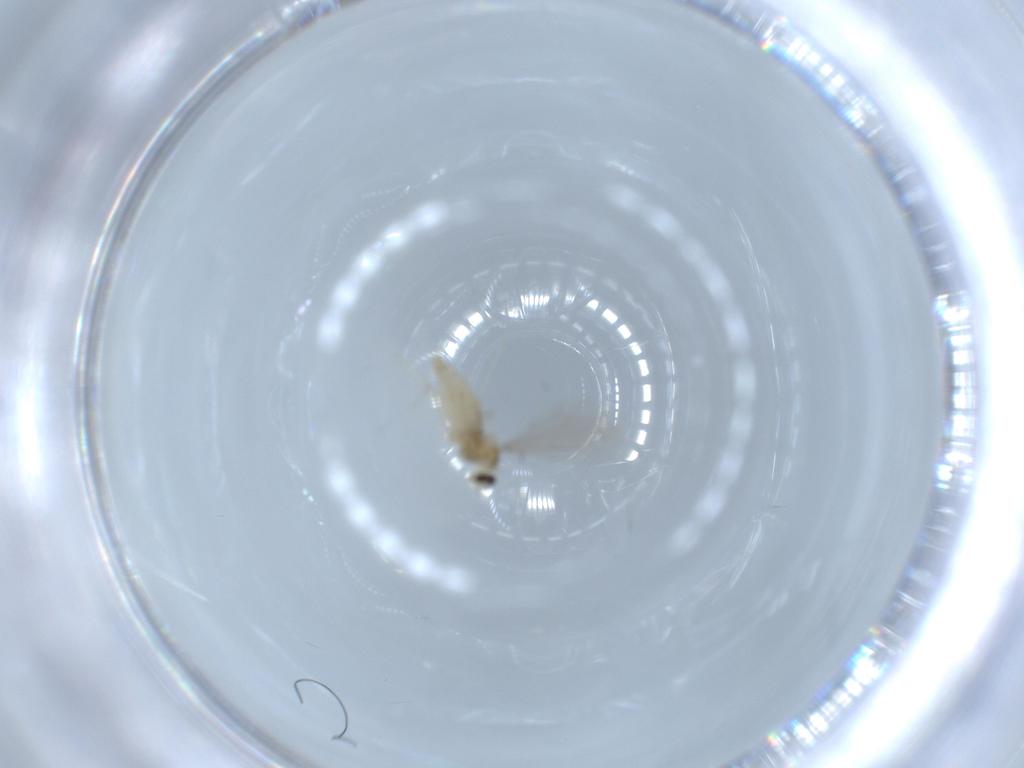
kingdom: Animalia
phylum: Arthropoda
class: Insecta
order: Diptera
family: Cecidomyiidae
